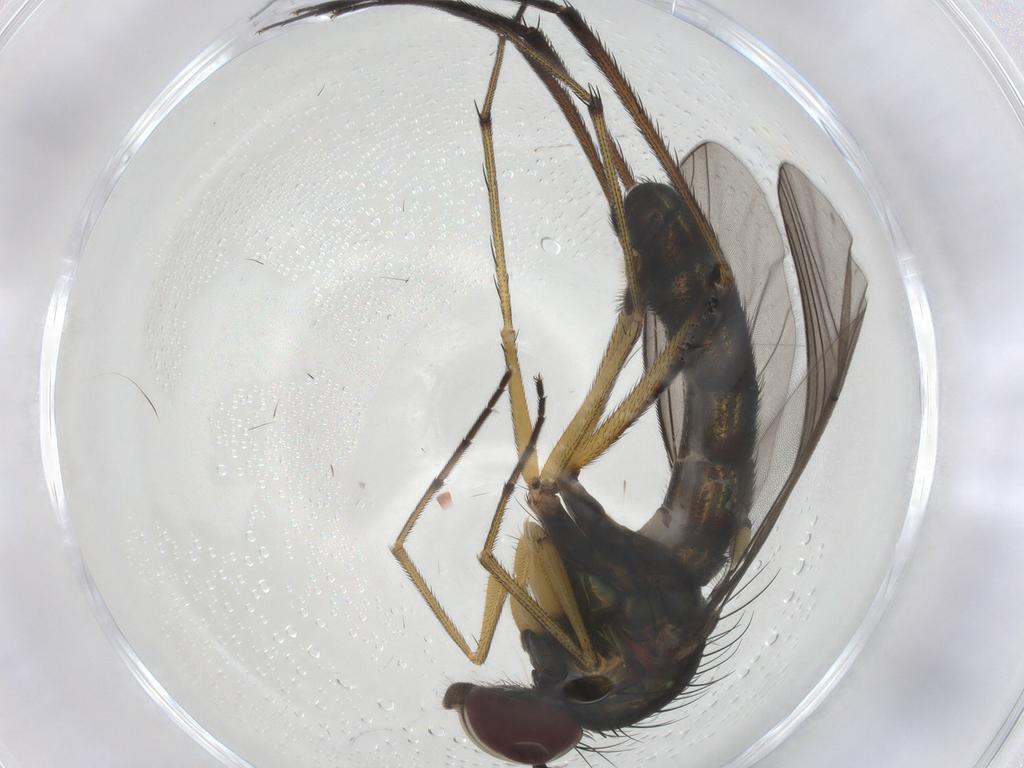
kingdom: Animalia
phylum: Arthropoda
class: Insecta
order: Diptera
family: Dolichopodidae
